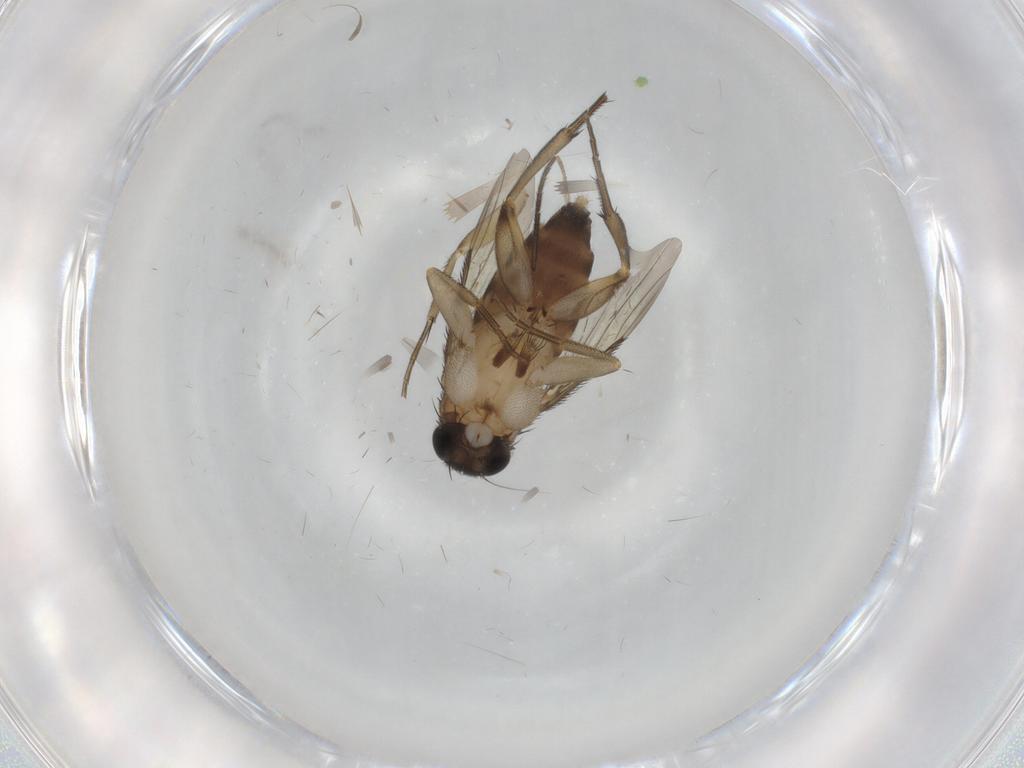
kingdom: Animalia
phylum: Arthropoda
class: Insecta
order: Diptera
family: Phoridae
